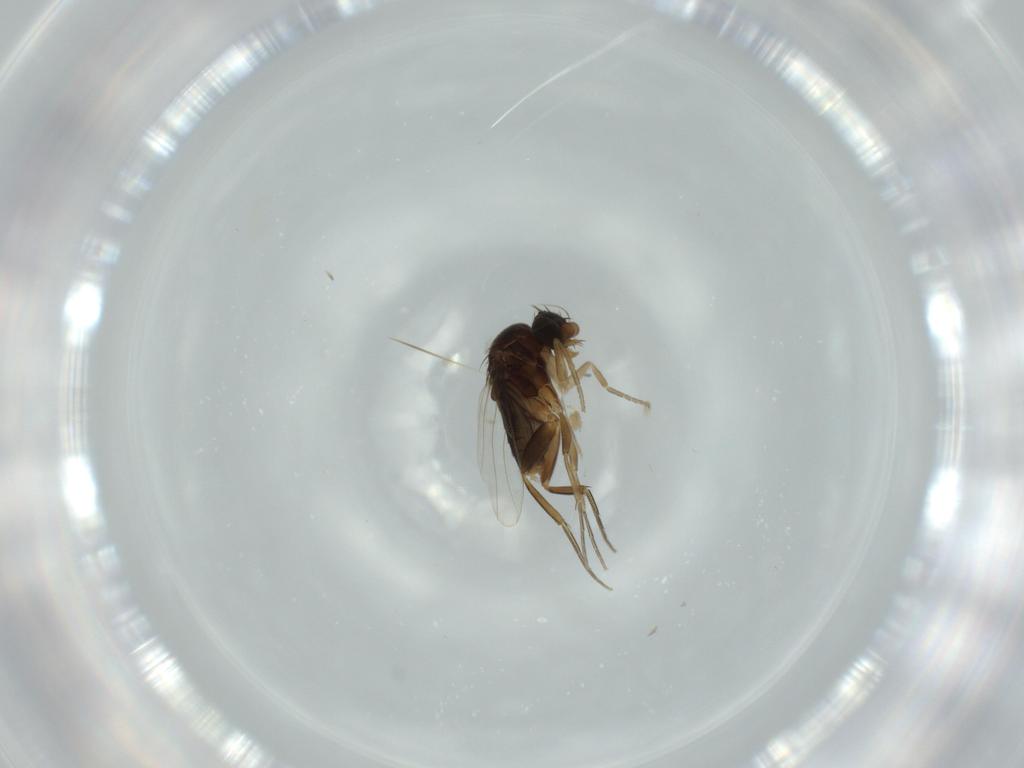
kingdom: Animalia
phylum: Arthropoda
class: Insecta
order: Diptera
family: Phoridae
